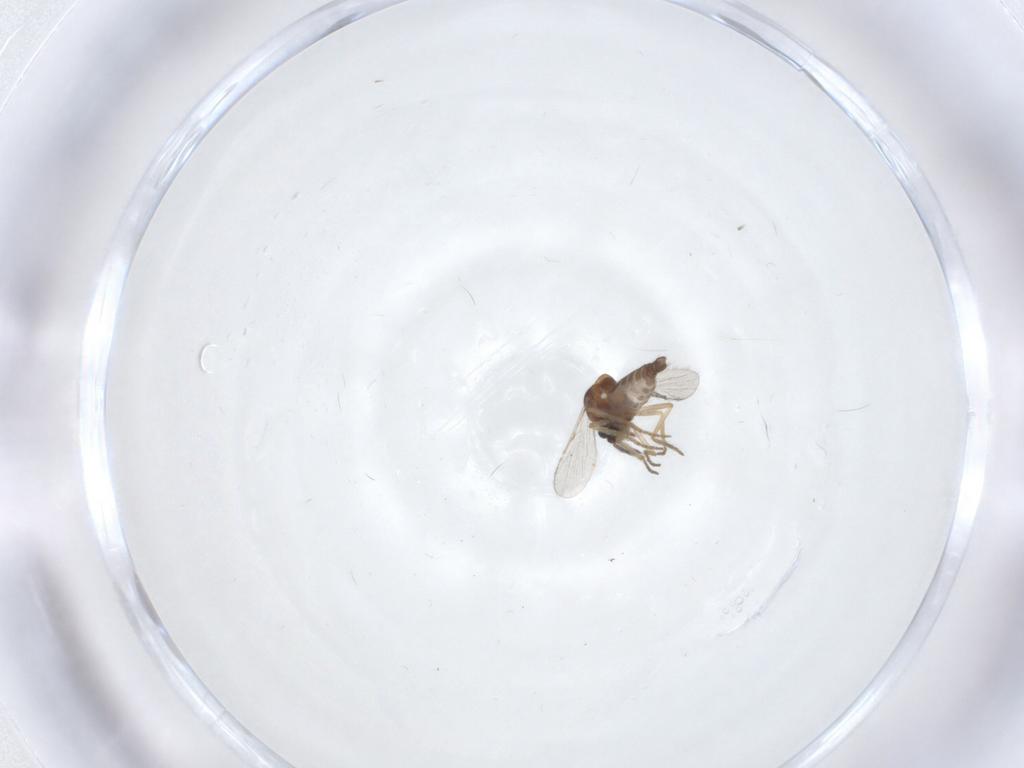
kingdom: Animalia
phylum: Arthropoda
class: Insecta
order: Diptera
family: Ceratopogonidae
